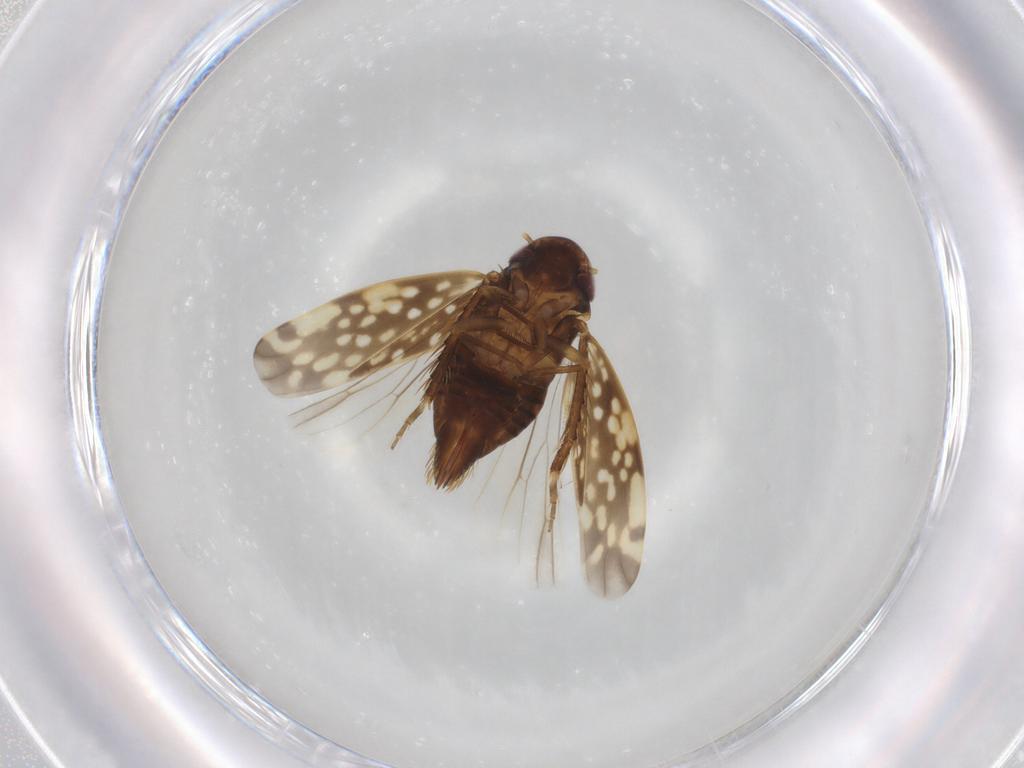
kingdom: Animalia
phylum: Arthropoda
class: Insecta
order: Hemiptera
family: Cicadellidae
